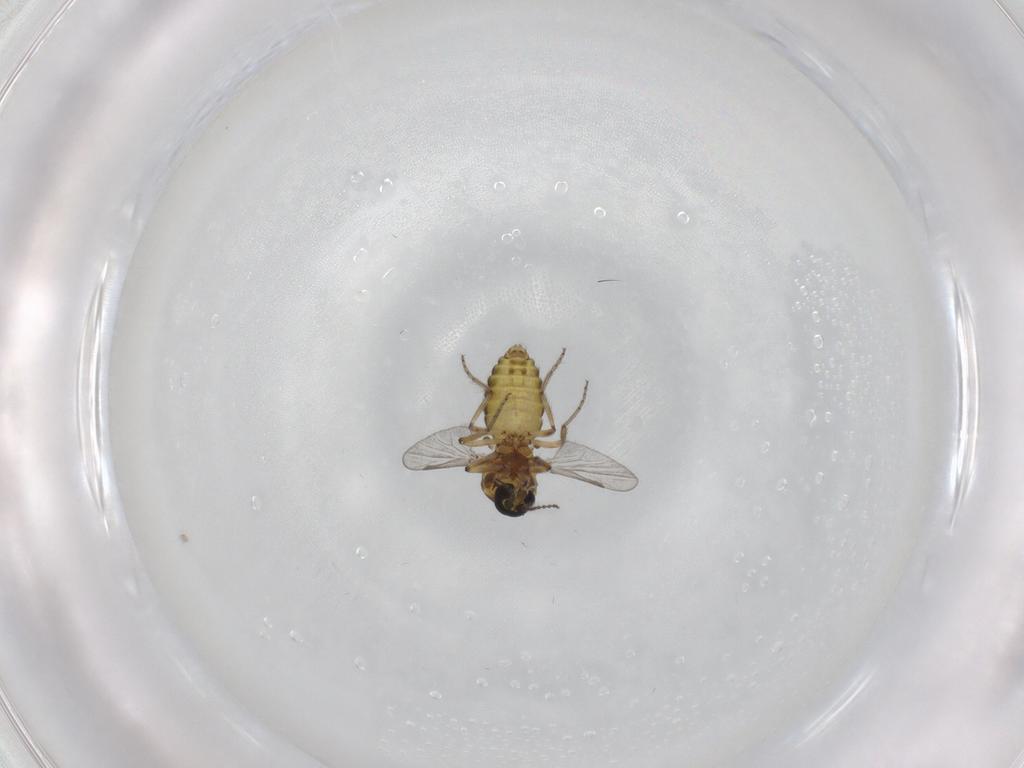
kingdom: Animalia
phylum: Arthropoda
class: Insecta
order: Diptera
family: Ceratopogonidae
